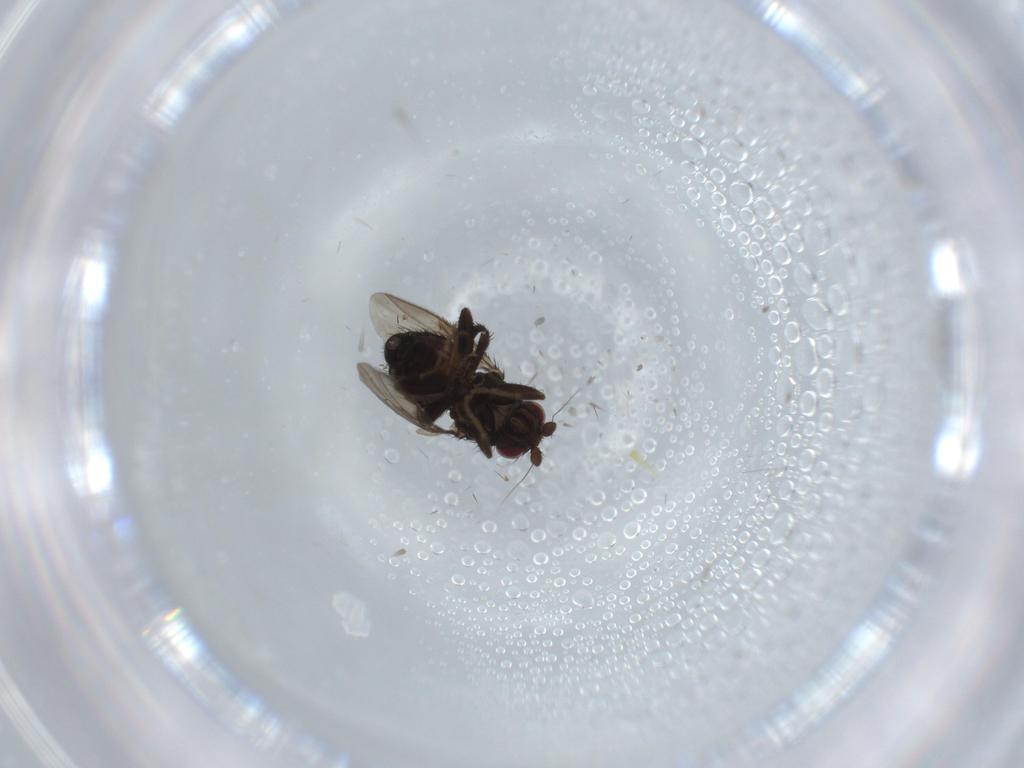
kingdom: Animalia
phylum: Arthropoda
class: Insecta
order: Diptera
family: Sphaeroceridae
